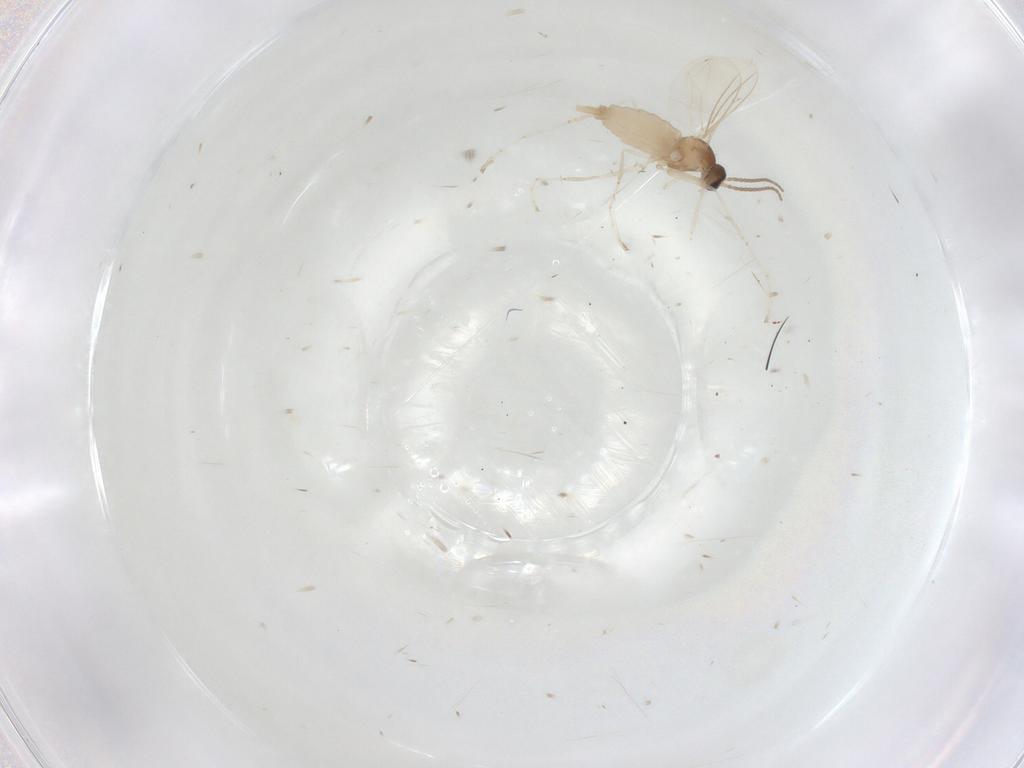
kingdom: Animalia
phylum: Arthropoda
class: Insecta
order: Diptera
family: Cecidomyiidae
